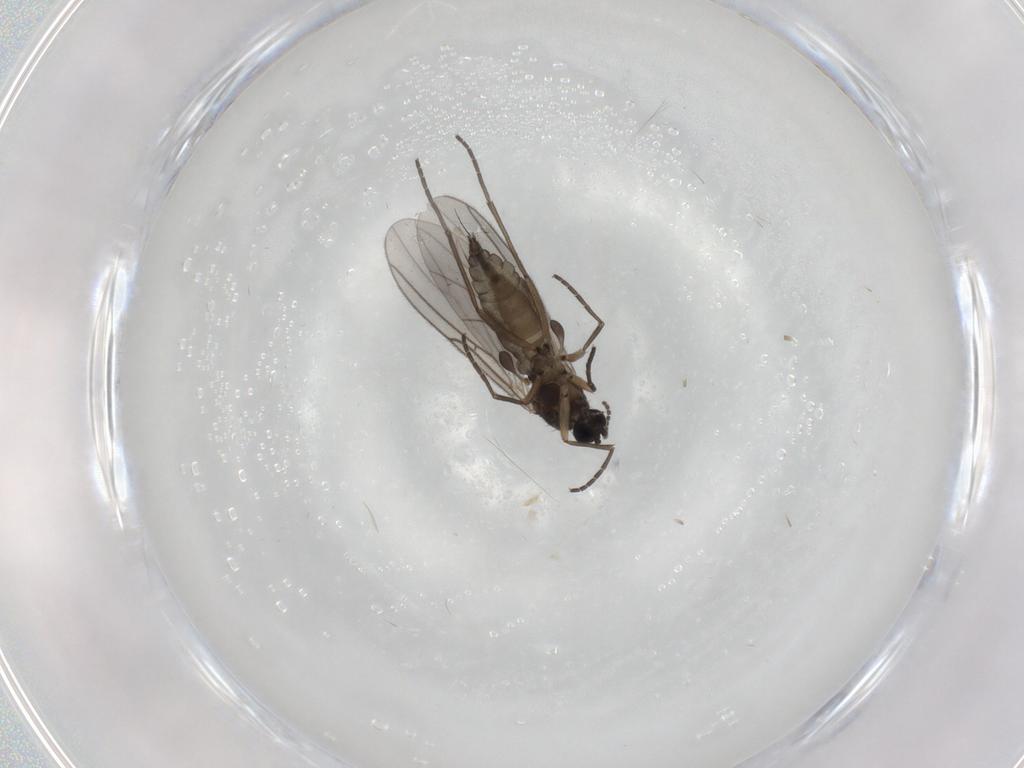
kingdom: Animalia
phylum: Arthropoda
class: Insecta
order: Diptera
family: Sciaridae
